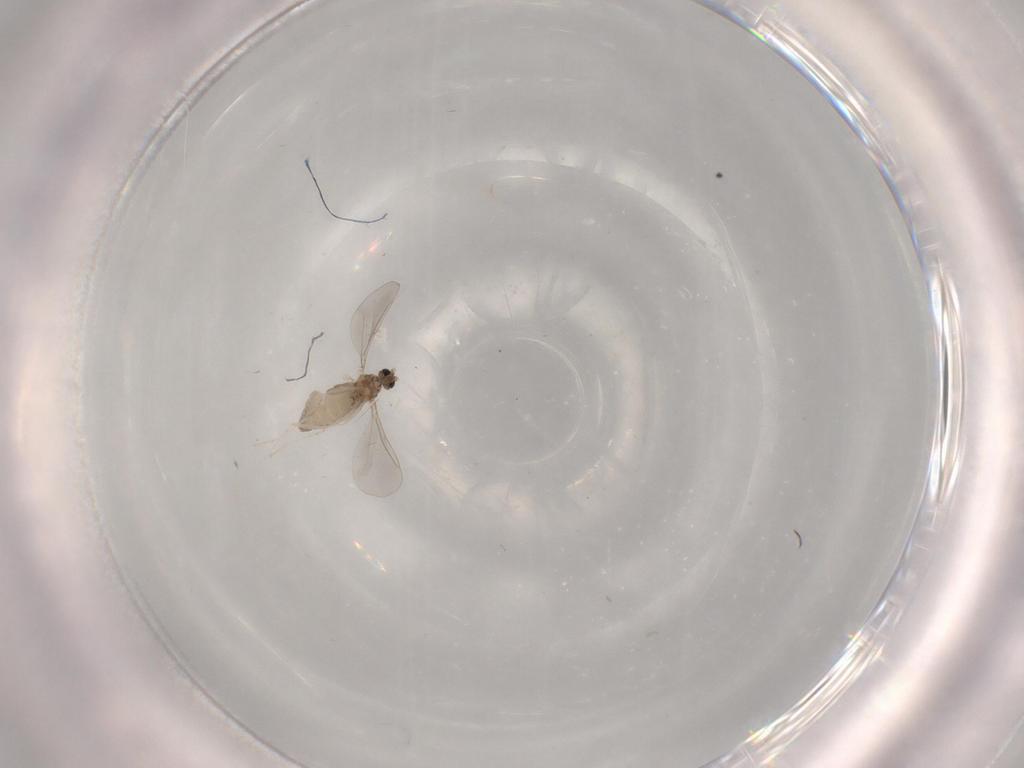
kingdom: Animalia
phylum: Arthropoda
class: Insecta
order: Diptera
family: Cecidomyiidae
